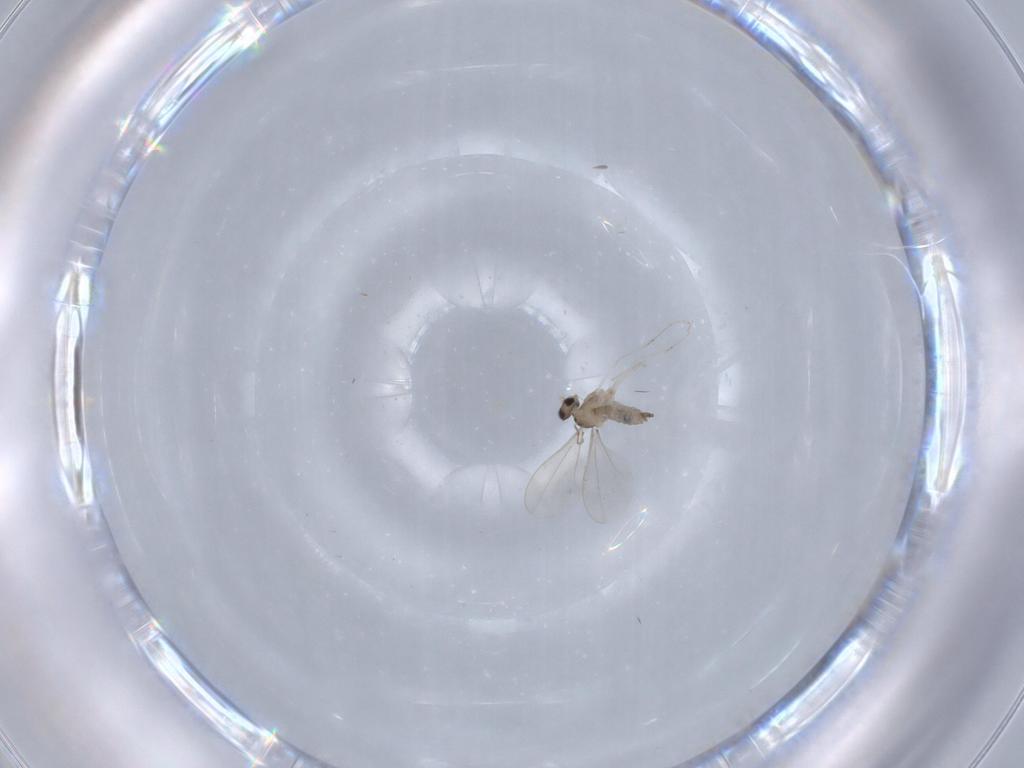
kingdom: Animalia
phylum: Arthropoda
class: Insecta
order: Diptera
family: Cecidomyiidae
